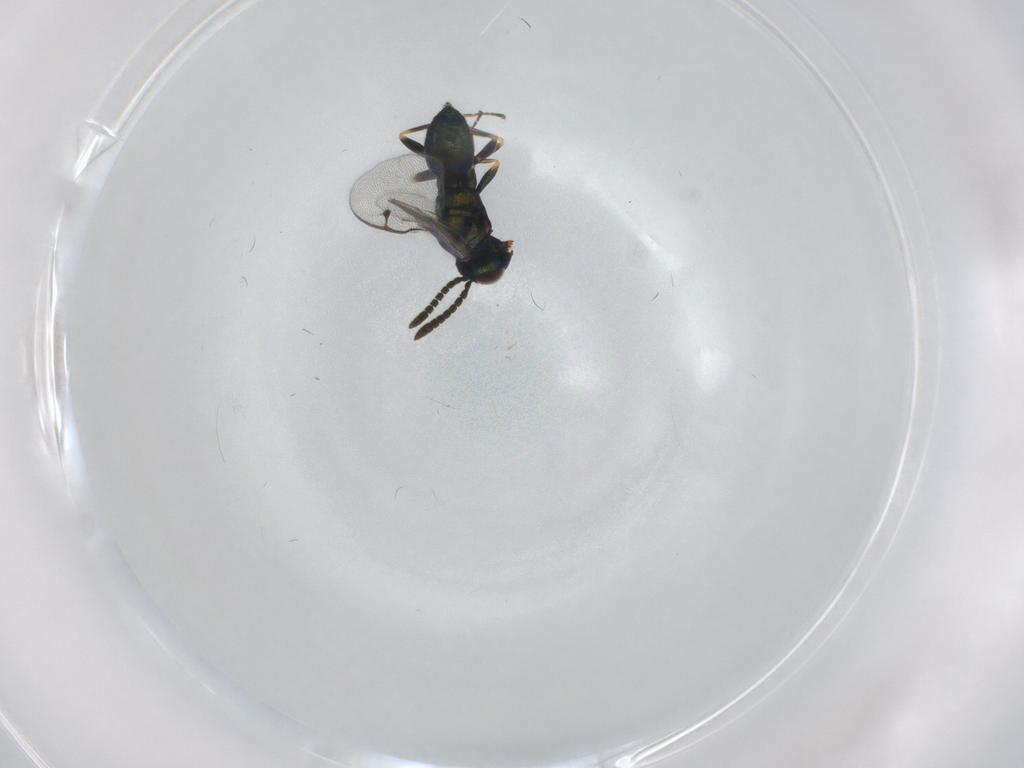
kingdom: Animalia
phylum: Arthropoda
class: Insecta
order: Hymenoptera
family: Pteromalidae
